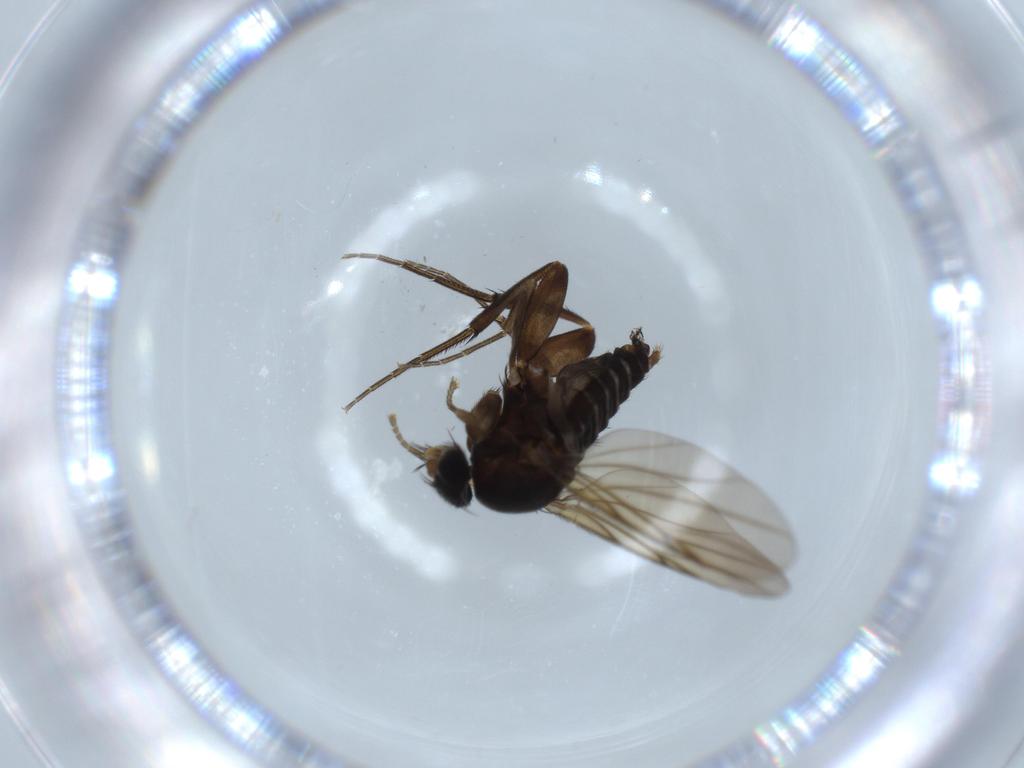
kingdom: Animalia
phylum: Arthropoda
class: Insecta
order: Diptera
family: Phoridae
